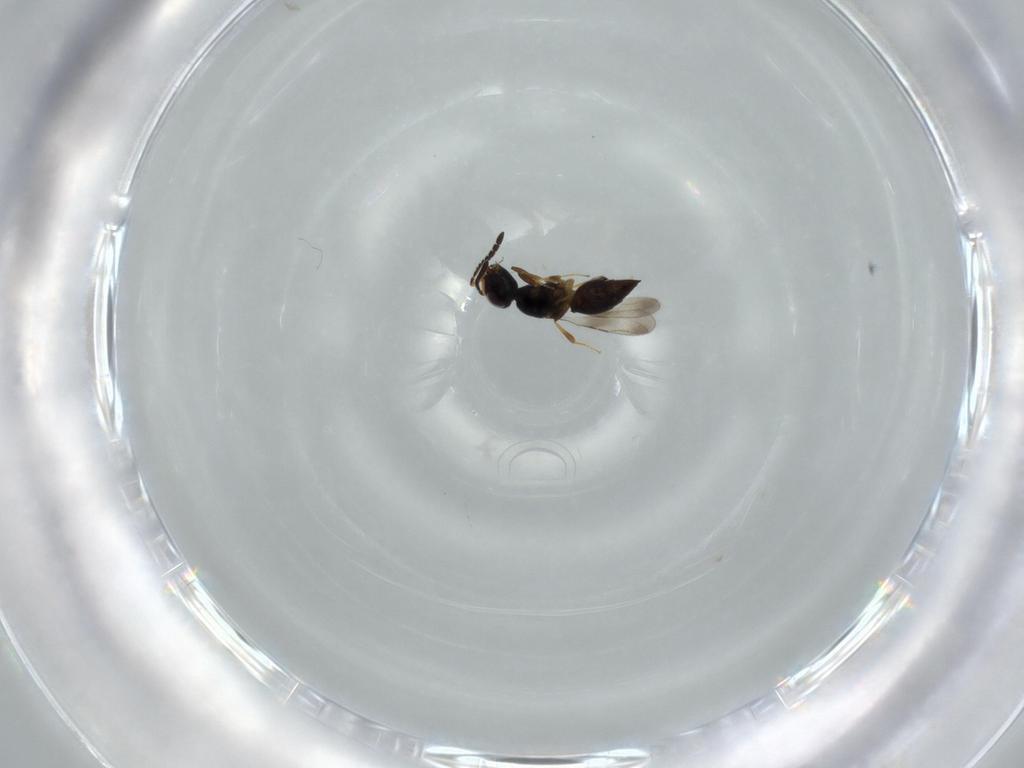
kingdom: Animalia
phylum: Arthropoda
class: Insecta
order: Hymenoptera
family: Ceraphronidae
